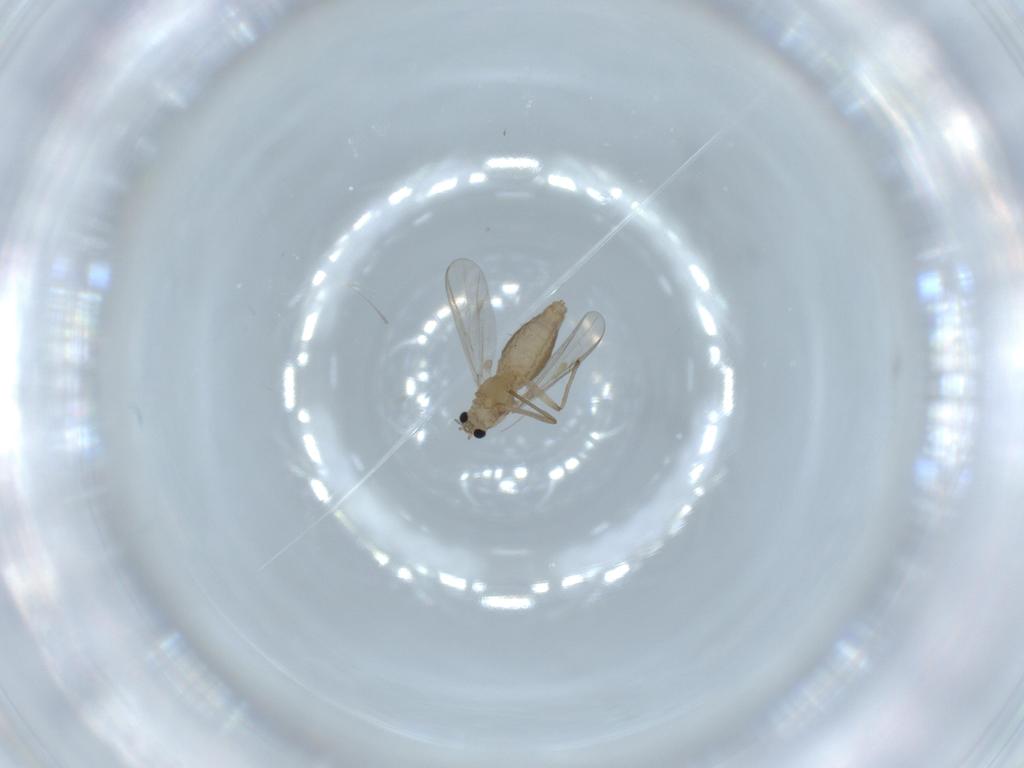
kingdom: Animalia
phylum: Arthropoda
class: Insecta
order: Diptera
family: Chironomidae
